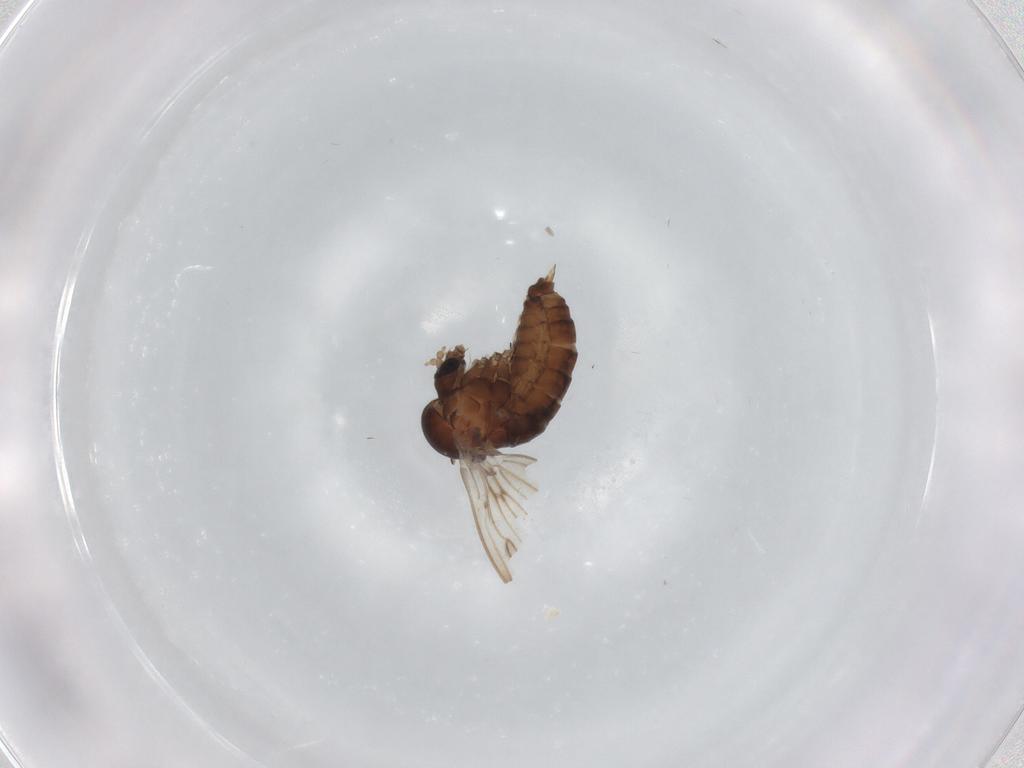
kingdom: Animalia
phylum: Arthropoda
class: Insecta
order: Diptera
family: Psychodidae
